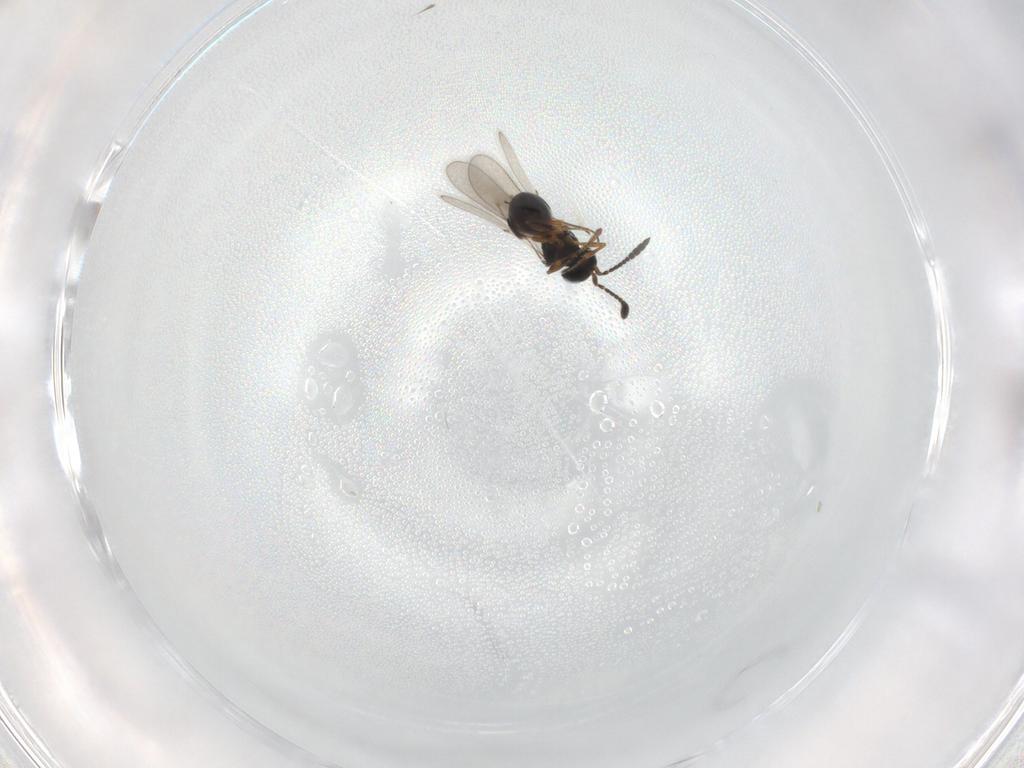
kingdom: Animalia
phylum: Arthropoda
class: Insecta
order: Hymenoptera
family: Scelionidae
